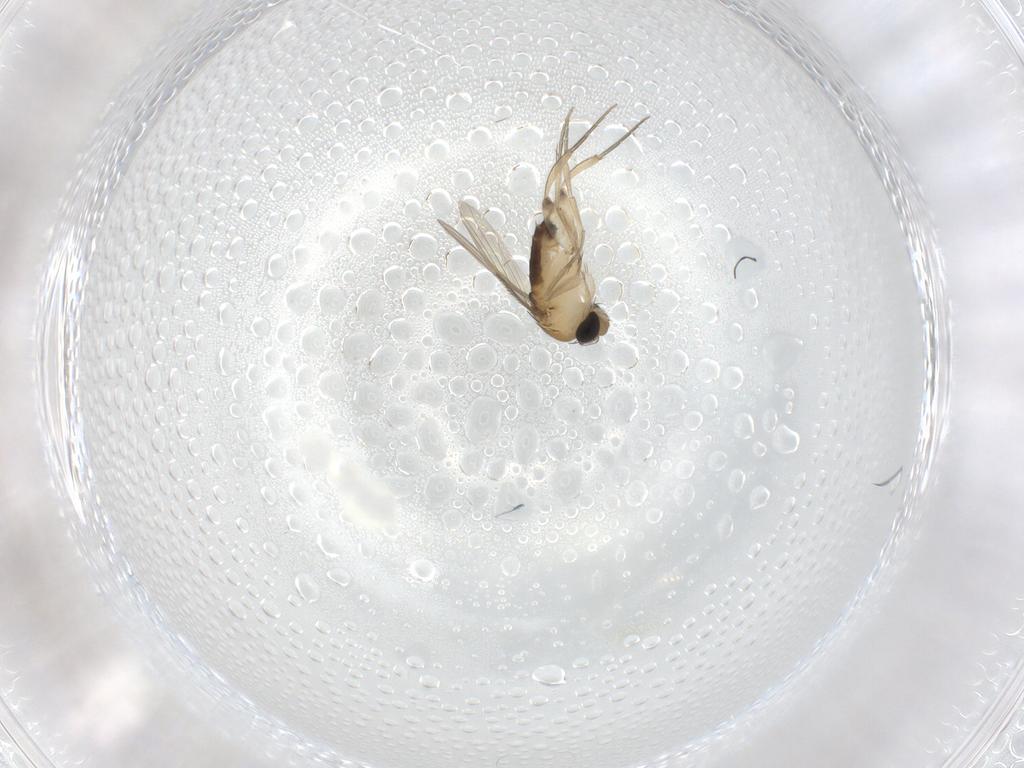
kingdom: Animalia
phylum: Arthropoda
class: Insecta
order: Diptera
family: Phoridae
